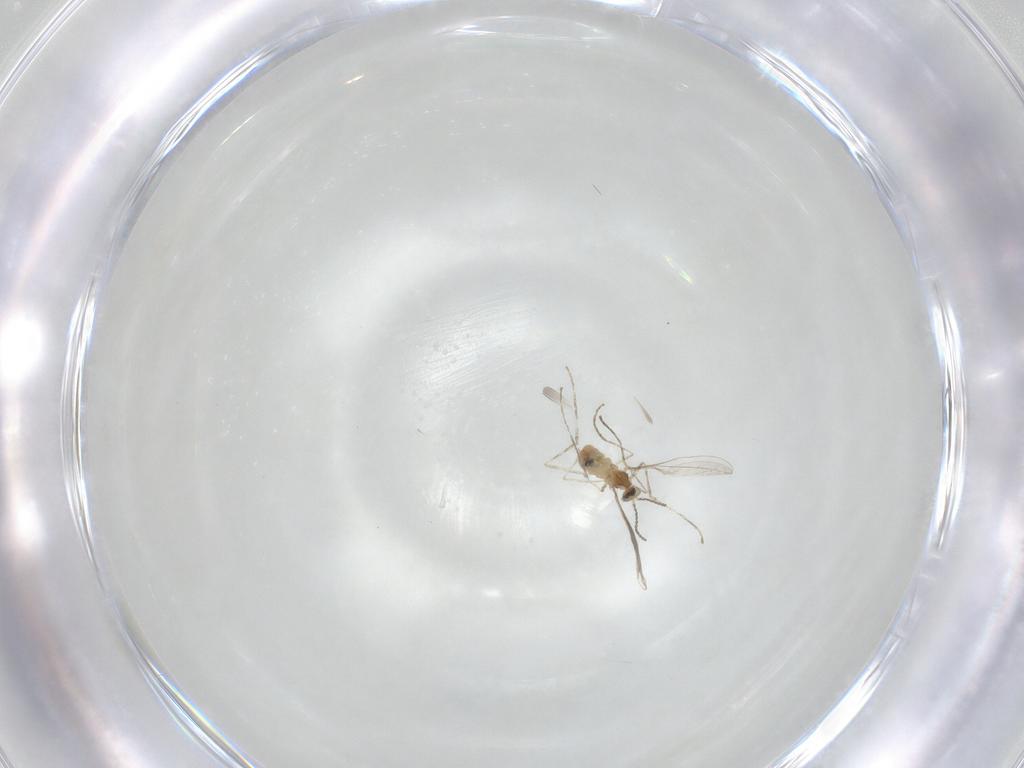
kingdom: Animalia
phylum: Arthropoda
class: Insecta
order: Diptera
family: Cecidomyiidae
